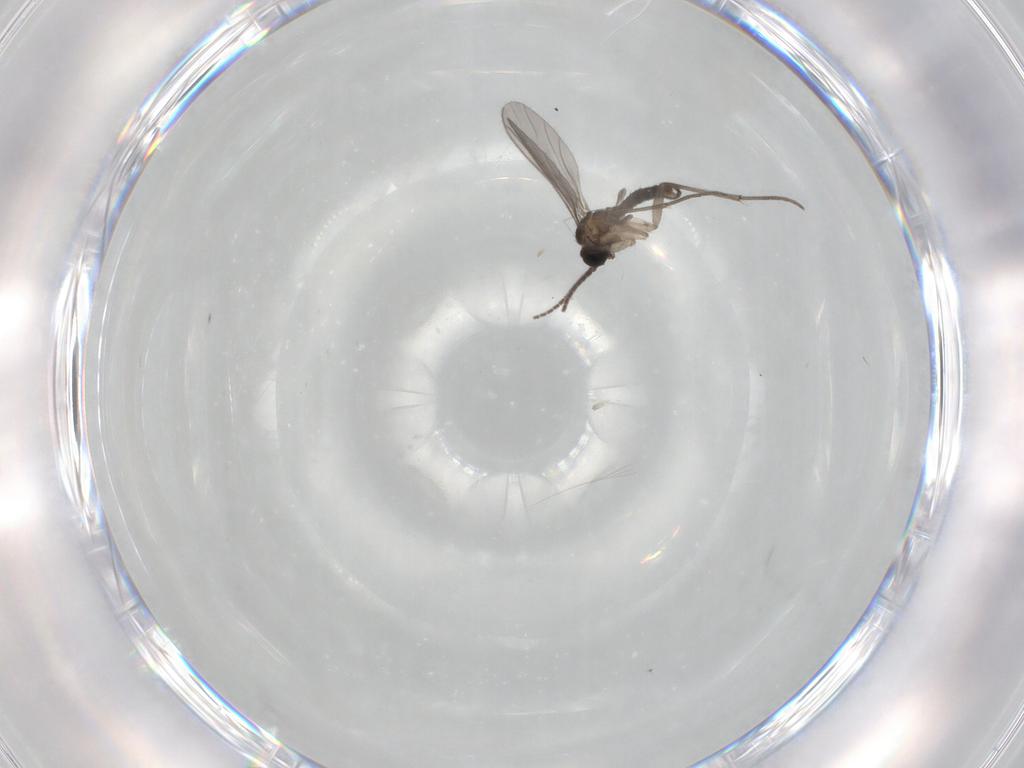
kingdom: Animalia
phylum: Arthropoda
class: Insecta
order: Diptera
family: Sciaridae
